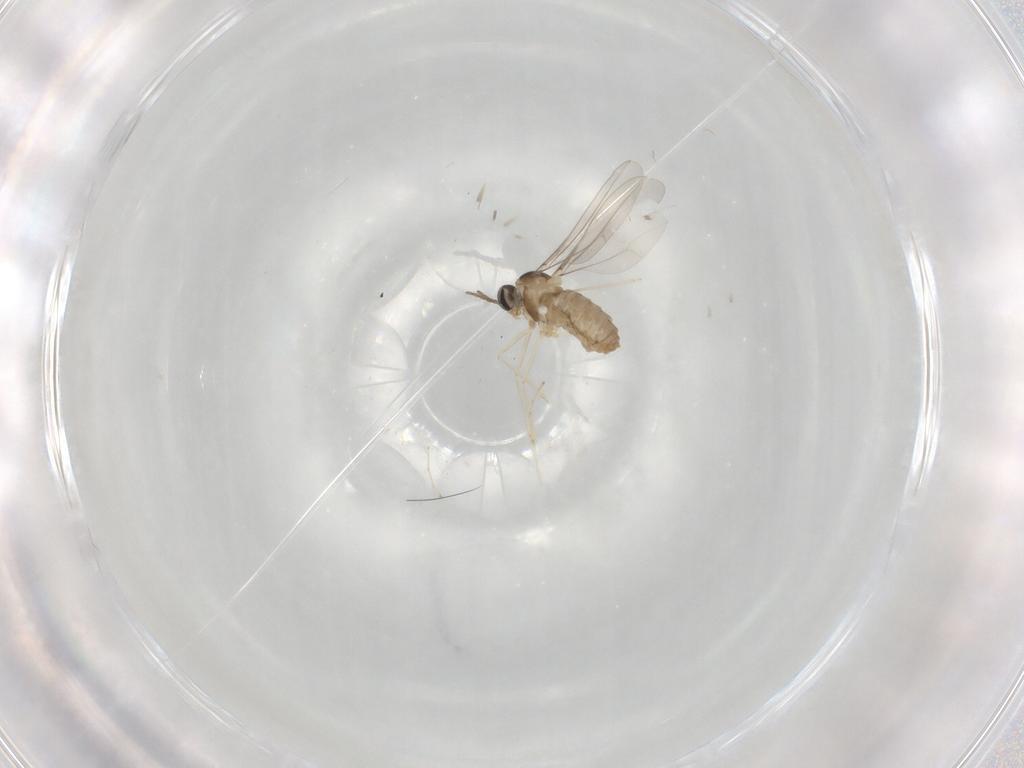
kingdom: Animalia
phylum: Arthropoda
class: Insecta
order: Diptera
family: Cecidomyiidae
